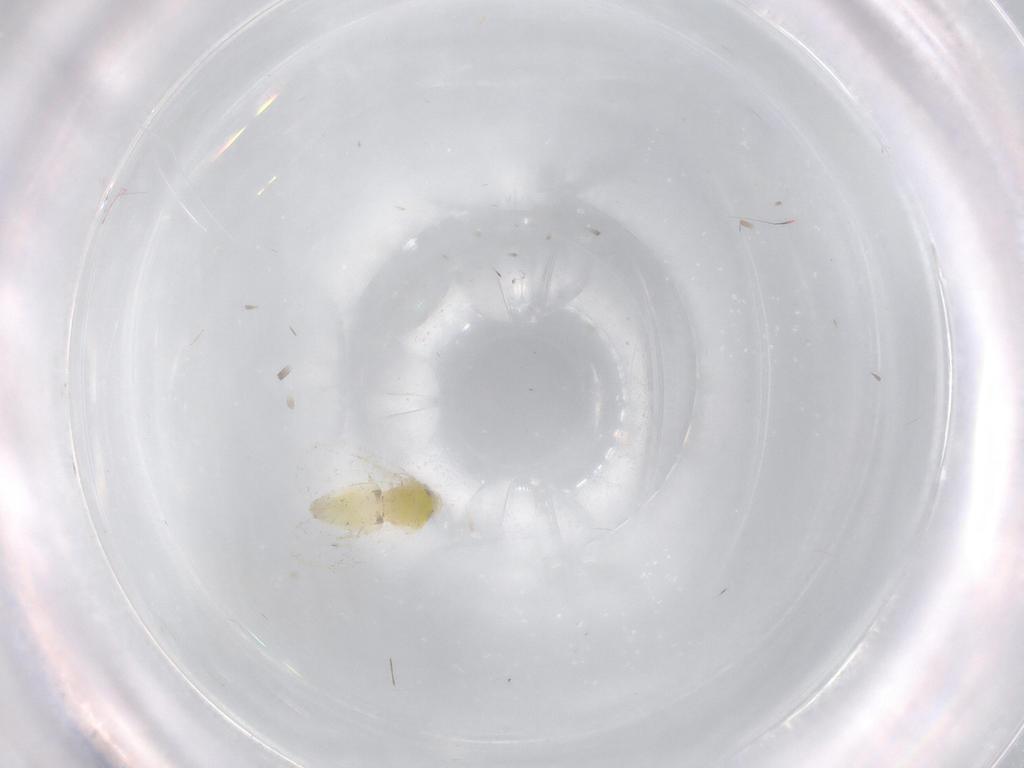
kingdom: Animalia
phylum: Arthropoda
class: Insecta
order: Hemiptera
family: Aleyrodidae
